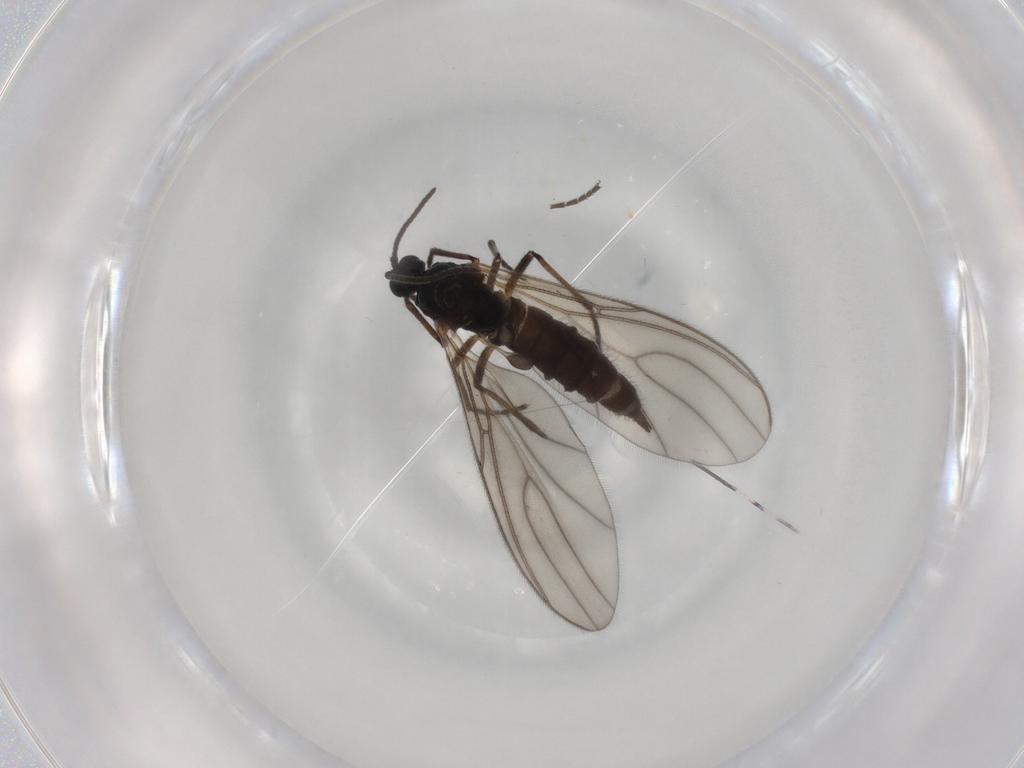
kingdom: Animalia
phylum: Arthropoda
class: Insecta
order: Diptera
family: Sciaridae
